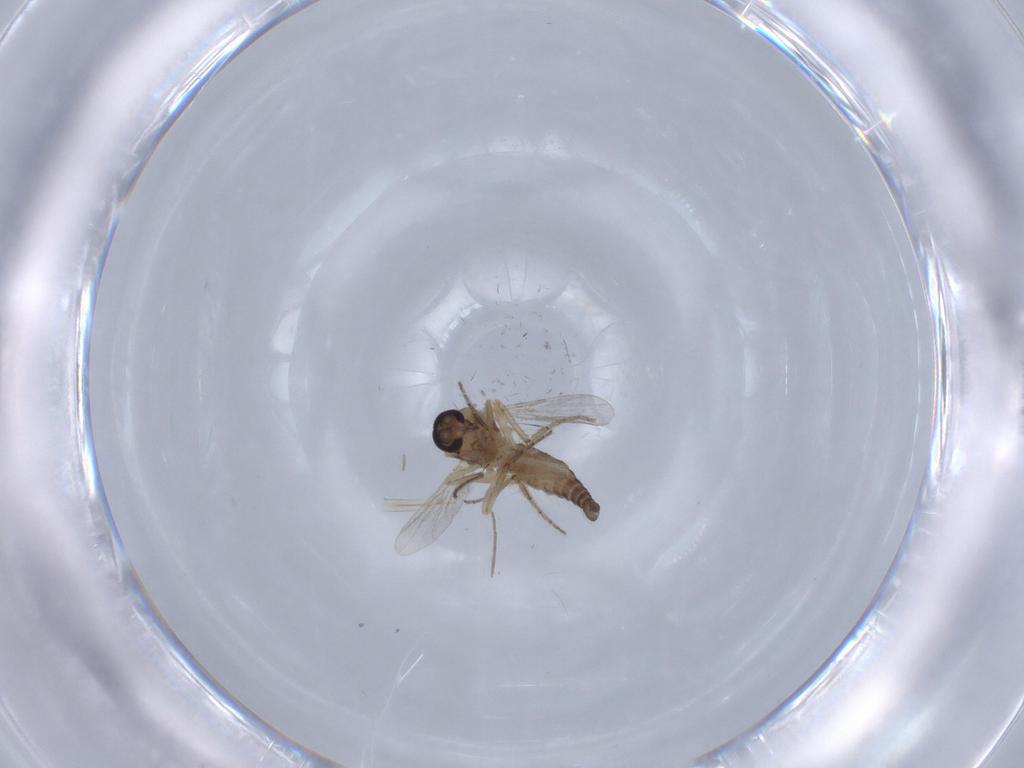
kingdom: Animalia
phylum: Arthropoda
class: Insecta
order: Diptera
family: Ceratopogonidae
